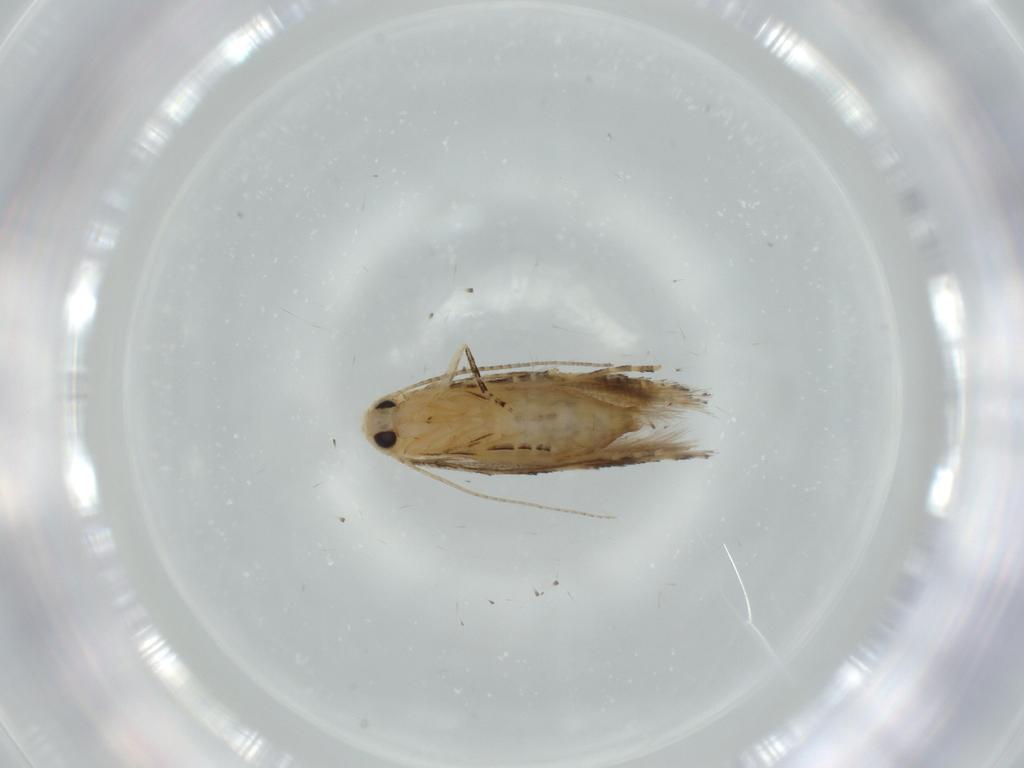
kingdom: Animalia
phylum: Arthropoda
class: Insecta
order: Lepidoptera
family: Bucculatricidae
